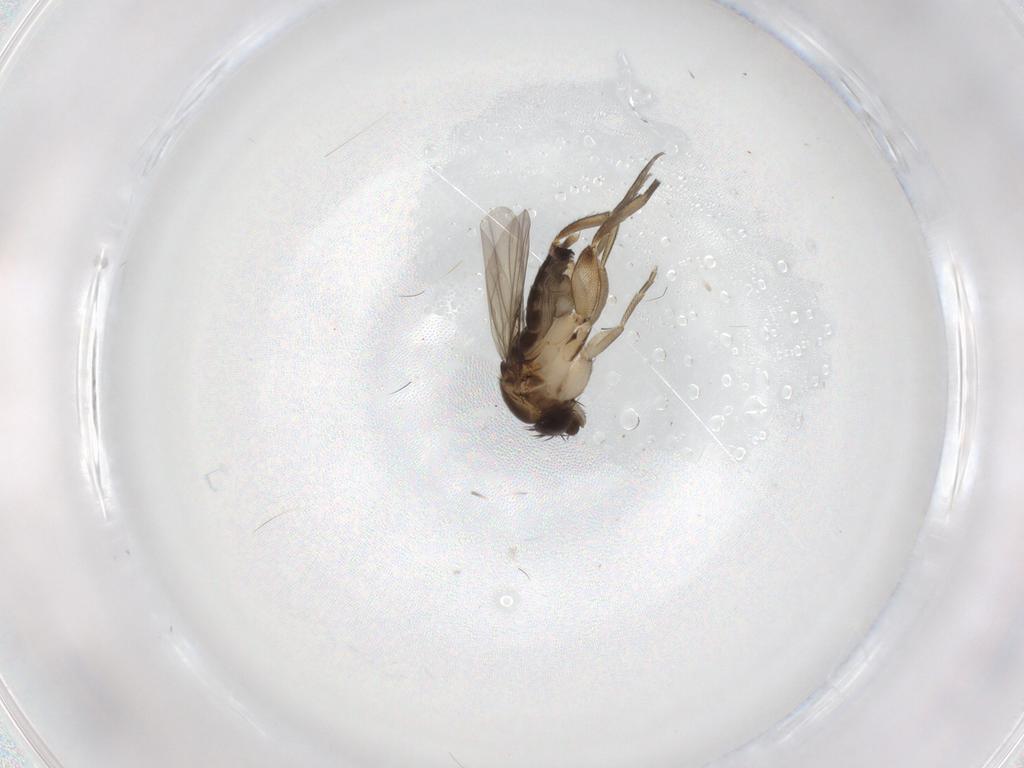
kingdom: Animalia
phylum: Arthropoda
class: Insecta
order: Diptera
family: Phoridae
